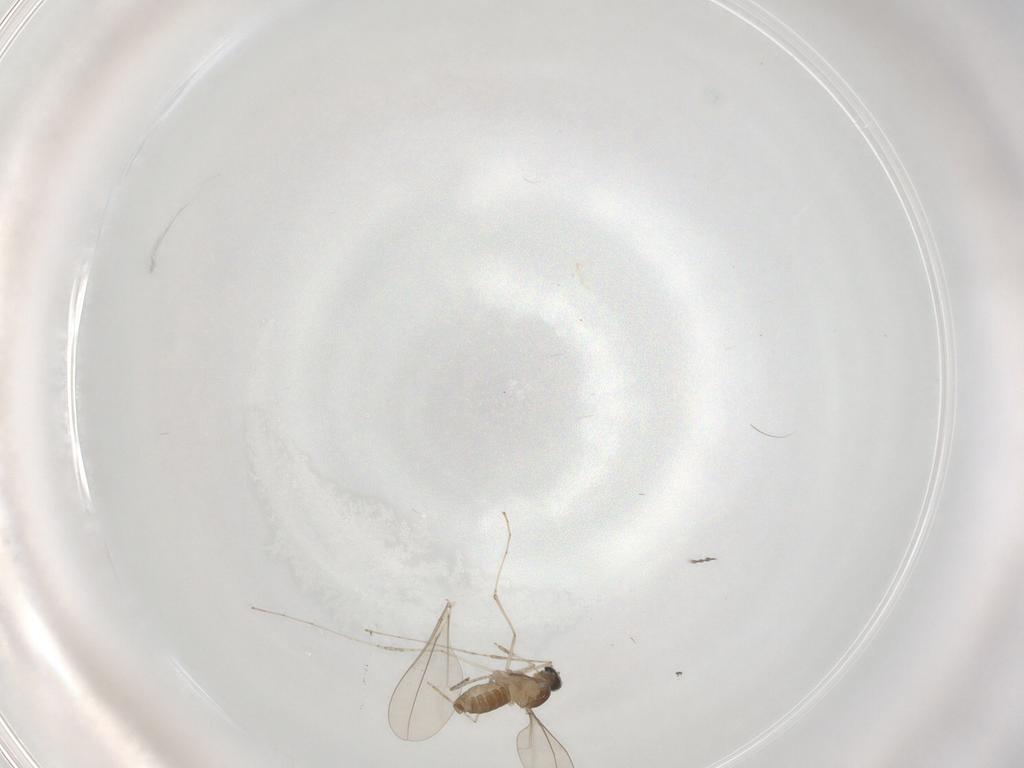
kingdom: Animalia
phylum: Arthropoda
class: Insecta
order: Diptera
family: Cecidomyiidae
